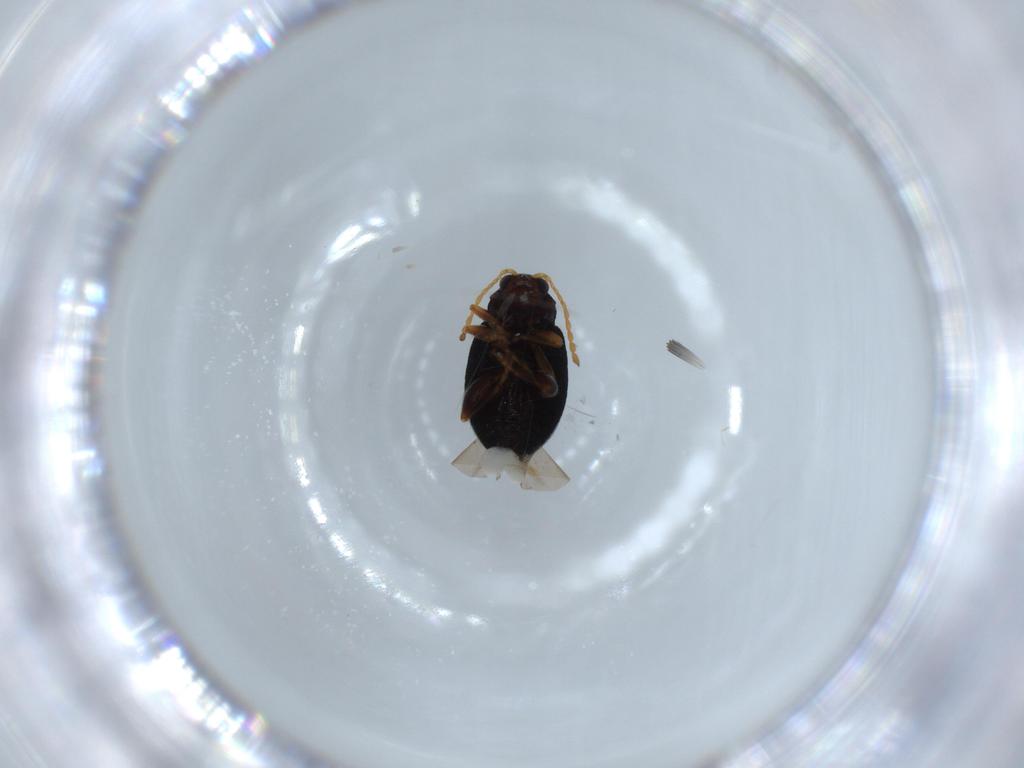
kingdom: Animalia
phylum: Arthropoda
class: Insecta
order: Coleoptera
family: Chrysomelidae
